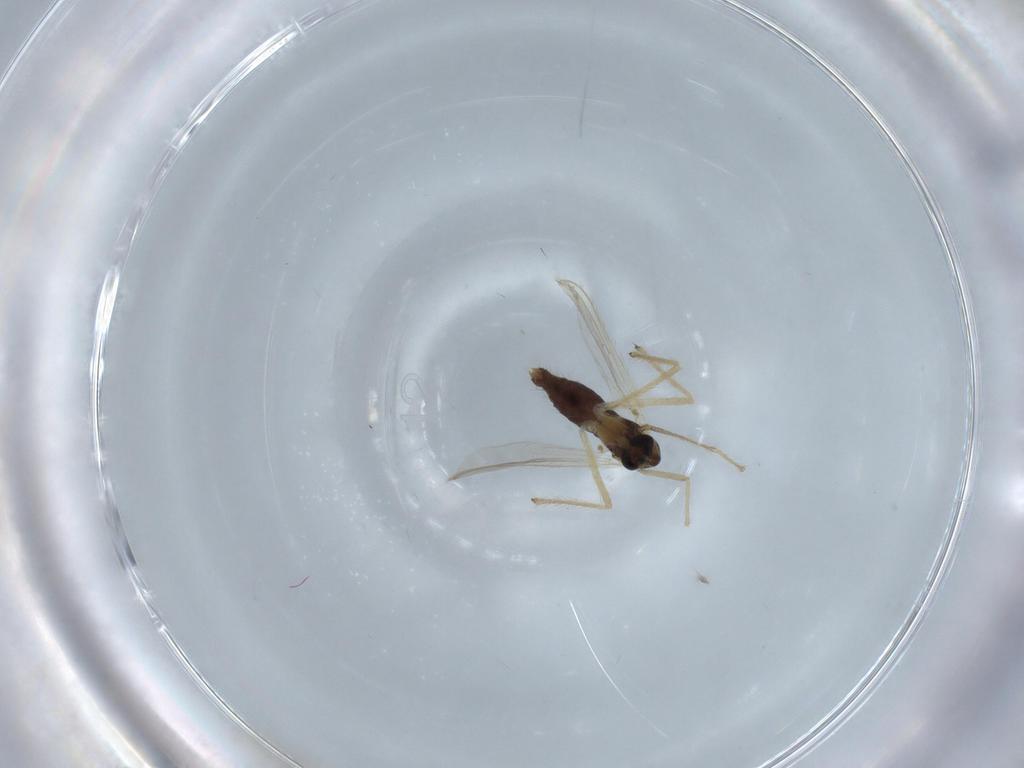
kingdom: Animalia
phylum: Arthropoda
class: Insecta
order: Diptera
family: Chironomidae
